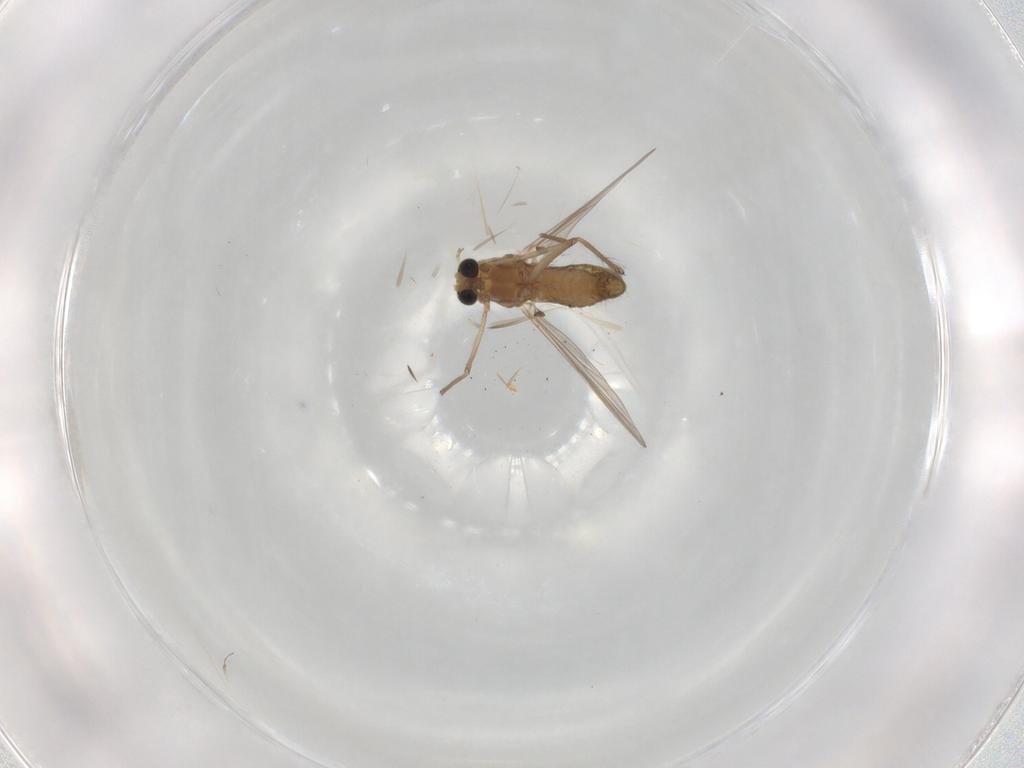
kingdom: Animalia
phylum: Arthropoda
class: Insecta
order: Diptera
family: Chironomidae
